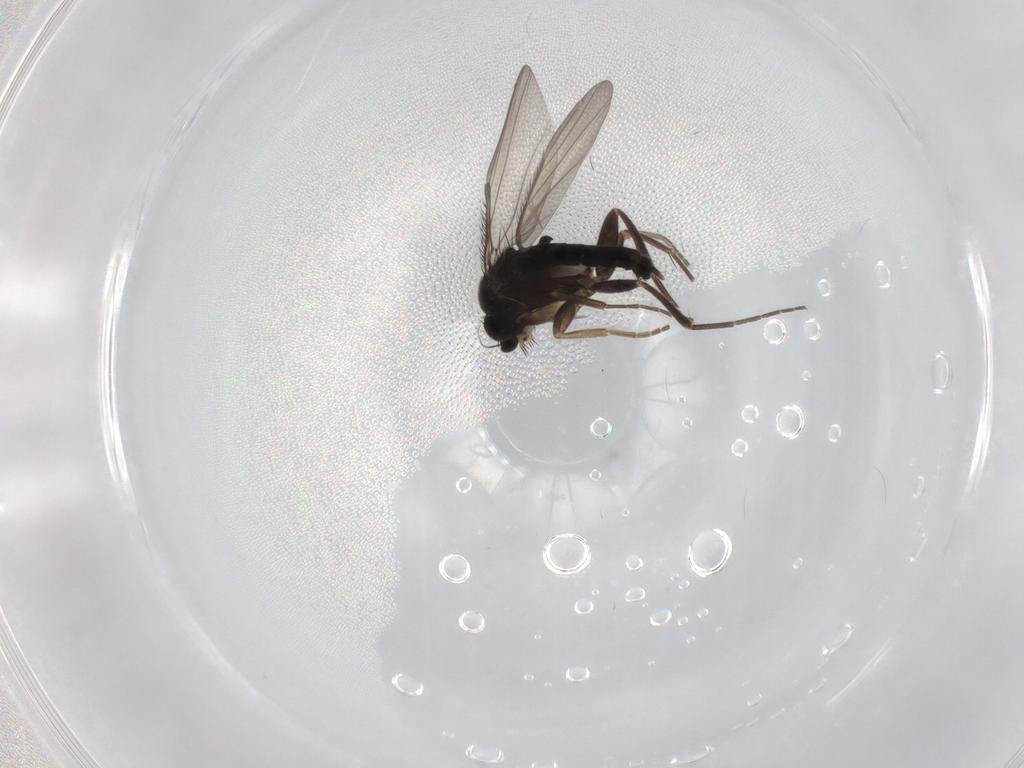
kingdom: Animalia
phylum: Arthropoda
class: Insecta
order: Diptera
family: Phoridae
